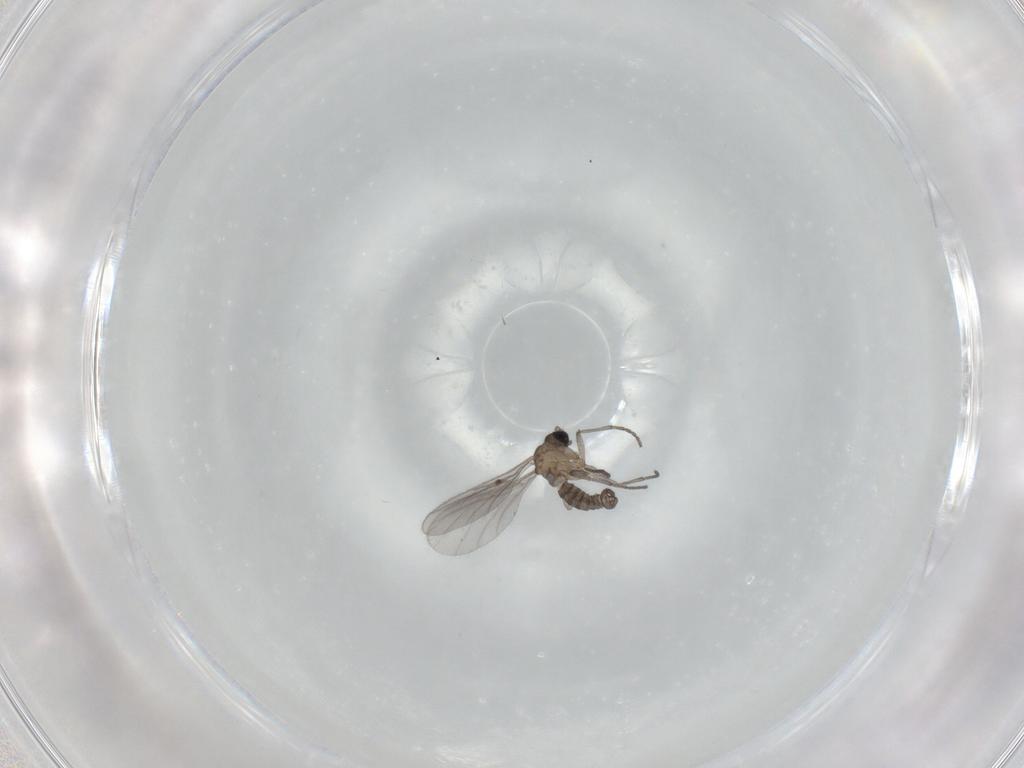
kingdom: Animalia
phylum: Arthropoda
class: Insecta
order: Diptera
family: Sciaridae
